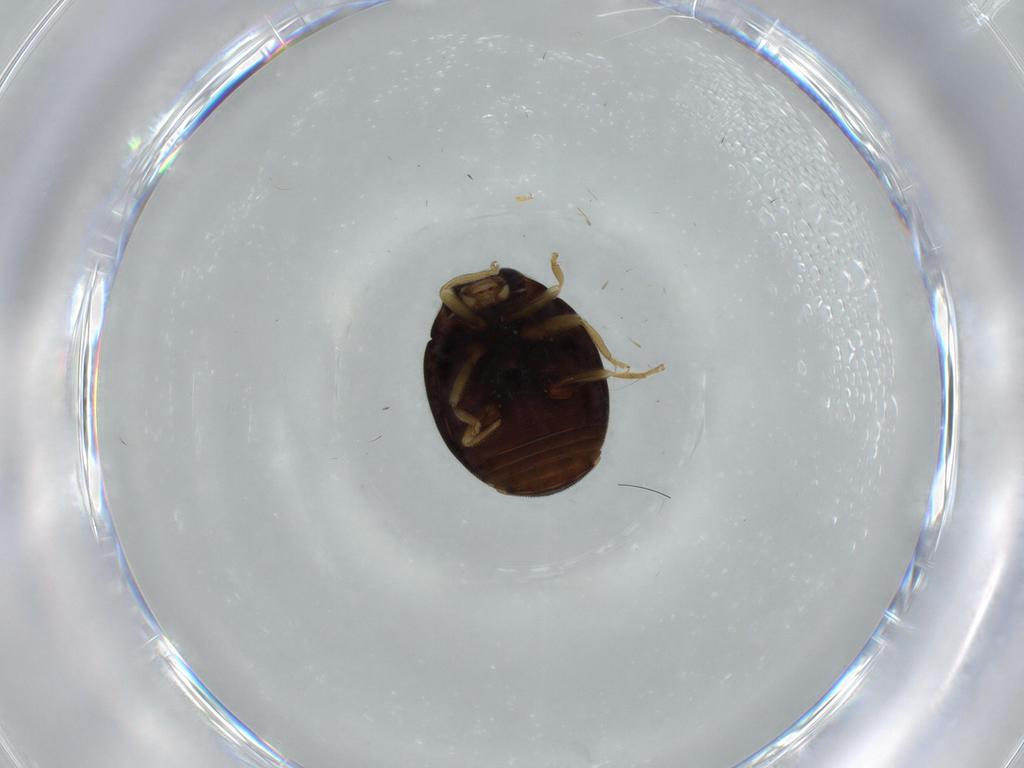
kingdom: Animalia
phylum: Arthropoda
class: Insecta
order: Coleoptera
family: Coccinellidae
